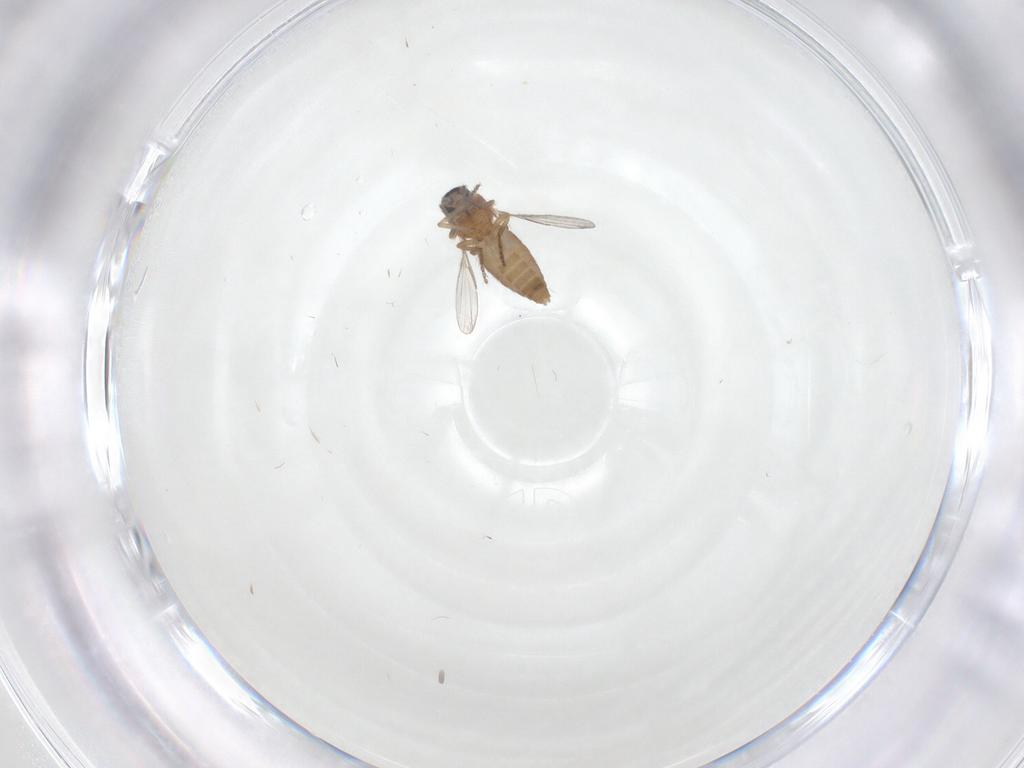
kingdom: Animalia
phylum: Arthropoda
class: Insecta
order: Diptera
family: Ceratopogonidae
